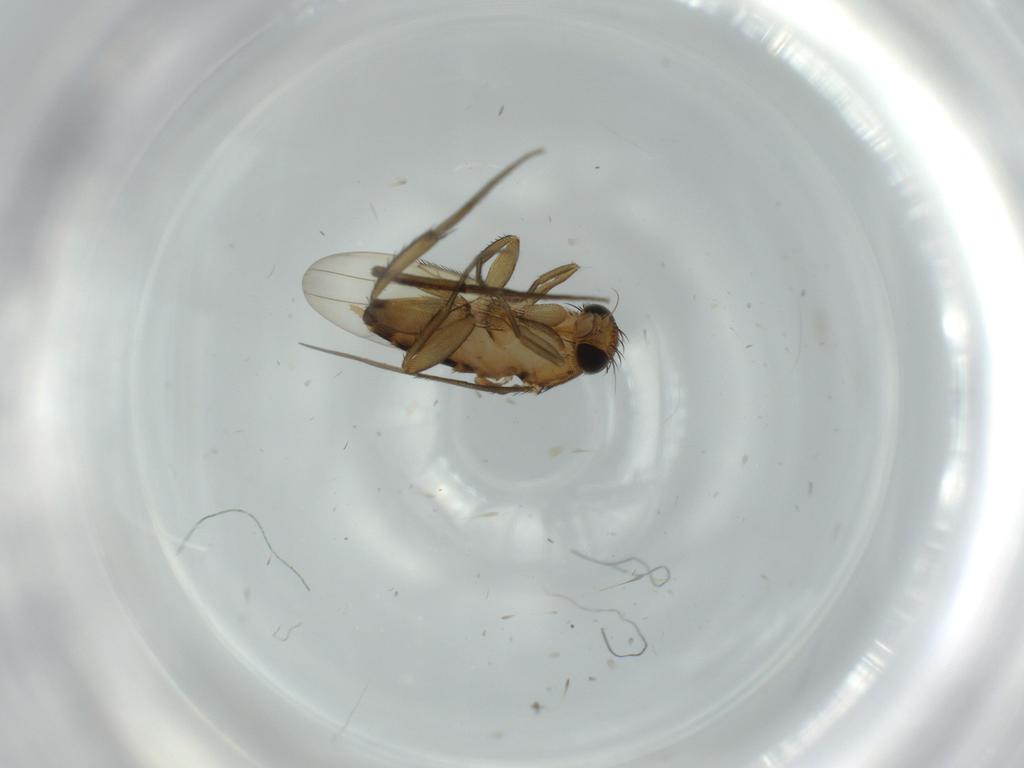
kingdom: Animalia
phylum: Arthropoda
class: Insecta
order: Diptera
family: Phoridae
